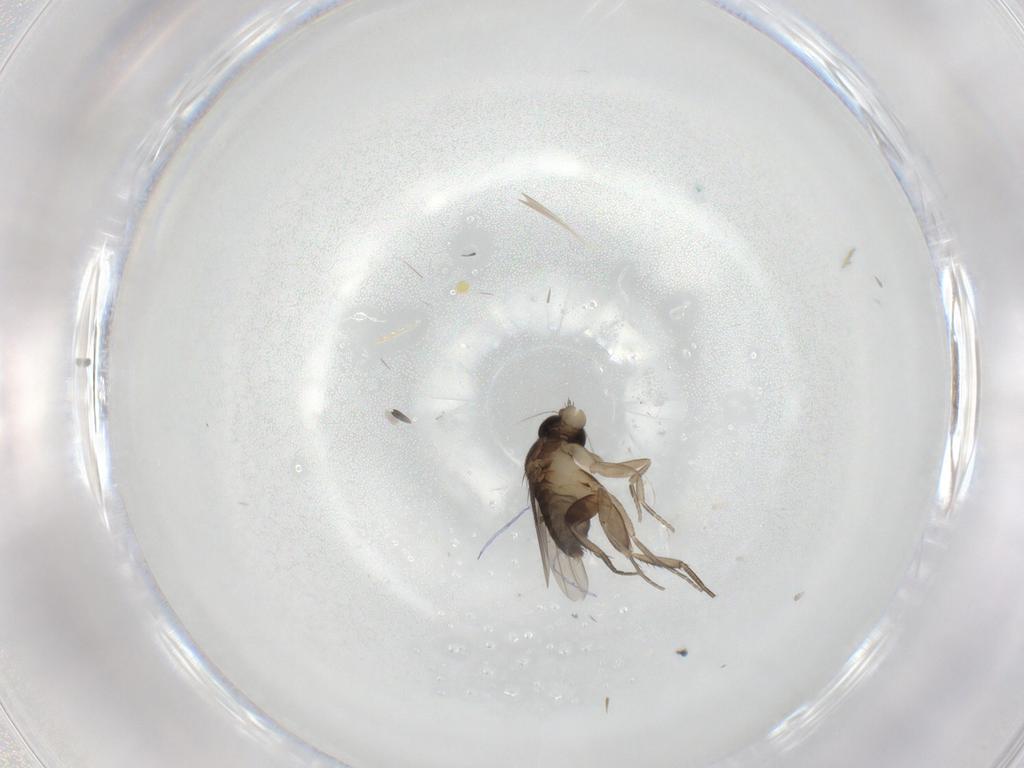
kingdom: Animalia
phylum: Arthropoda
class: Insecta
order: Diptera
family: Phoridae
